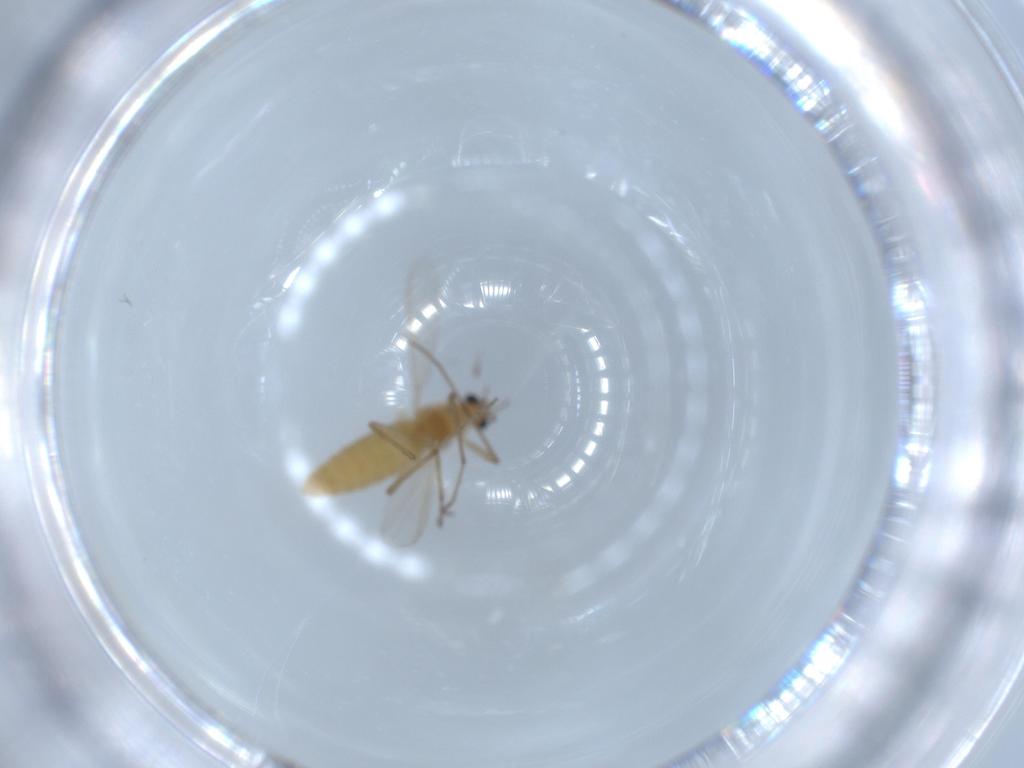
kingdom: Animalia
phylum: Arthropoda
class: Insecta
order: Diptera
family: Chironomidae
